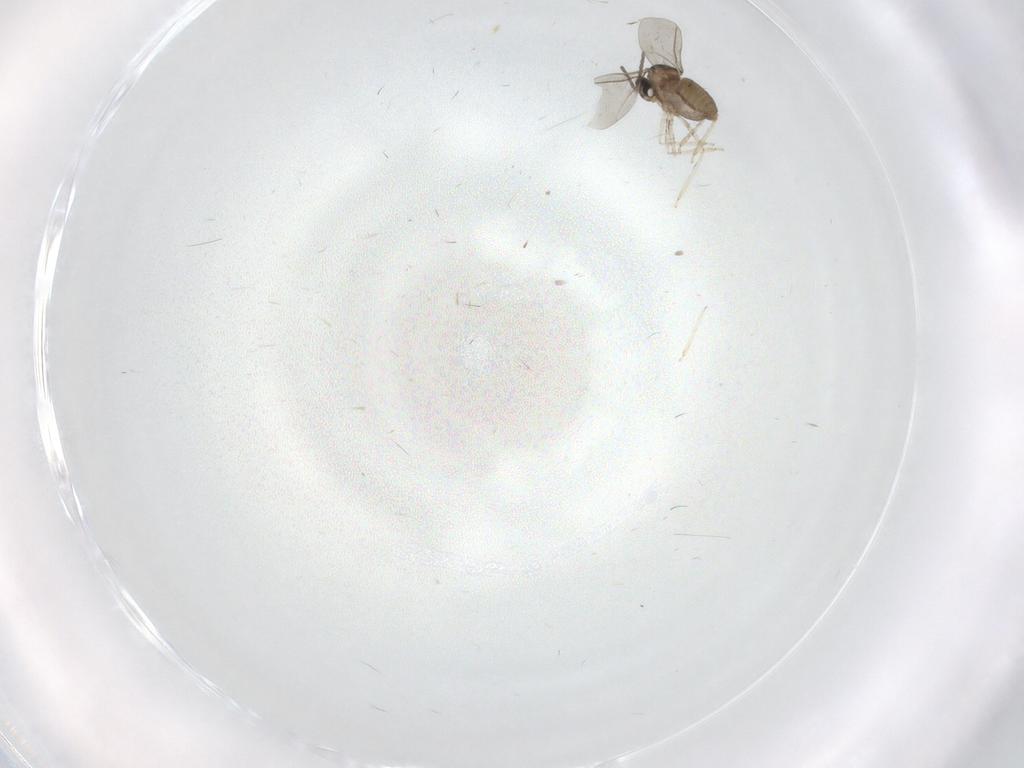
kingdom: Animalia
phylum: Arthropoda
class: Insecta
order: Diptera
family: Cecidomyiidae
